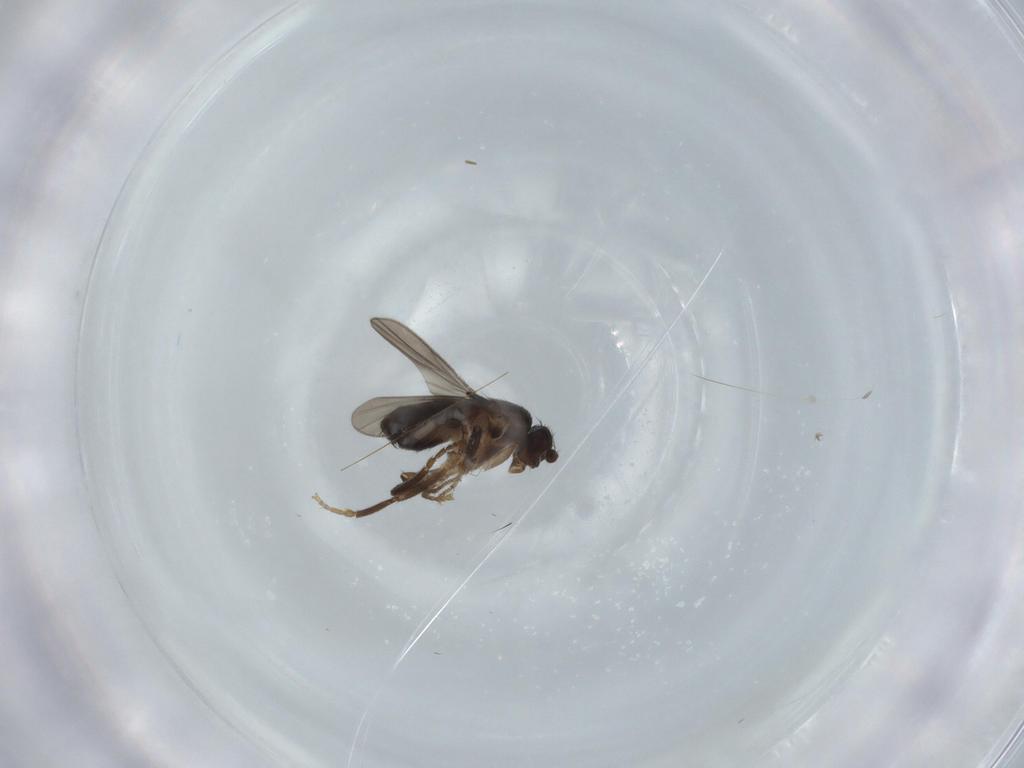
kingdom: Animalia
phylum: Arthropoda
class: Insecta
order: Diptera
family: Sphaeroceridae
